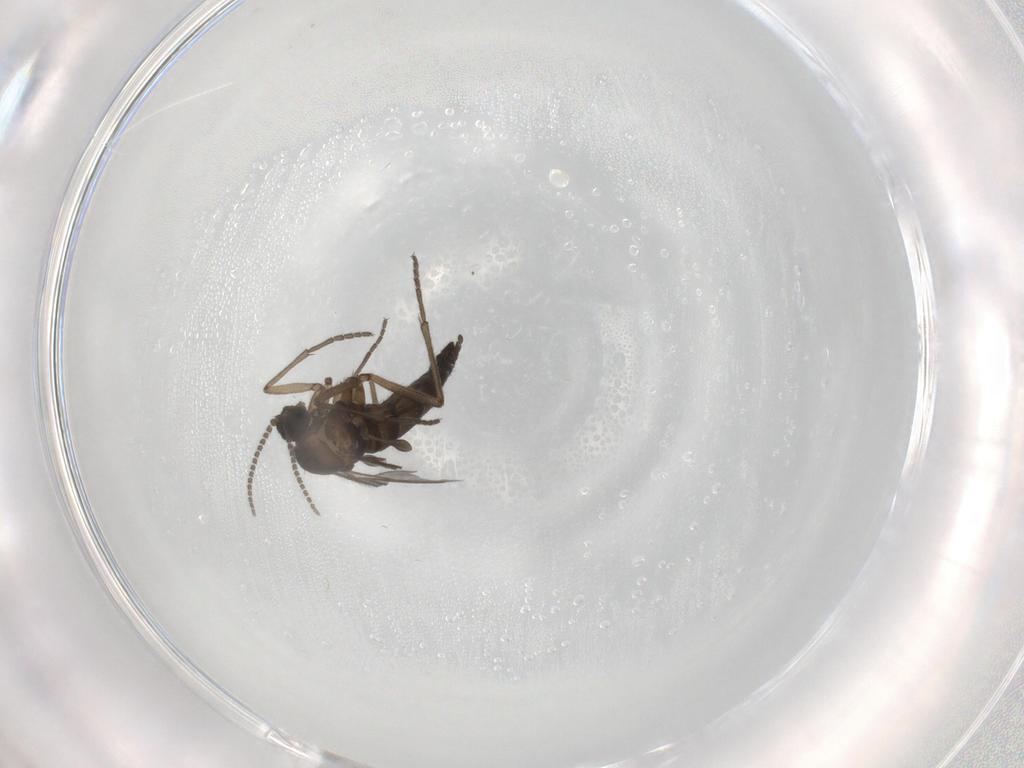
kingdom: Animalia
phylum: Arthropoda
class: Insecta
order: Diptera
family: Sciaridae
